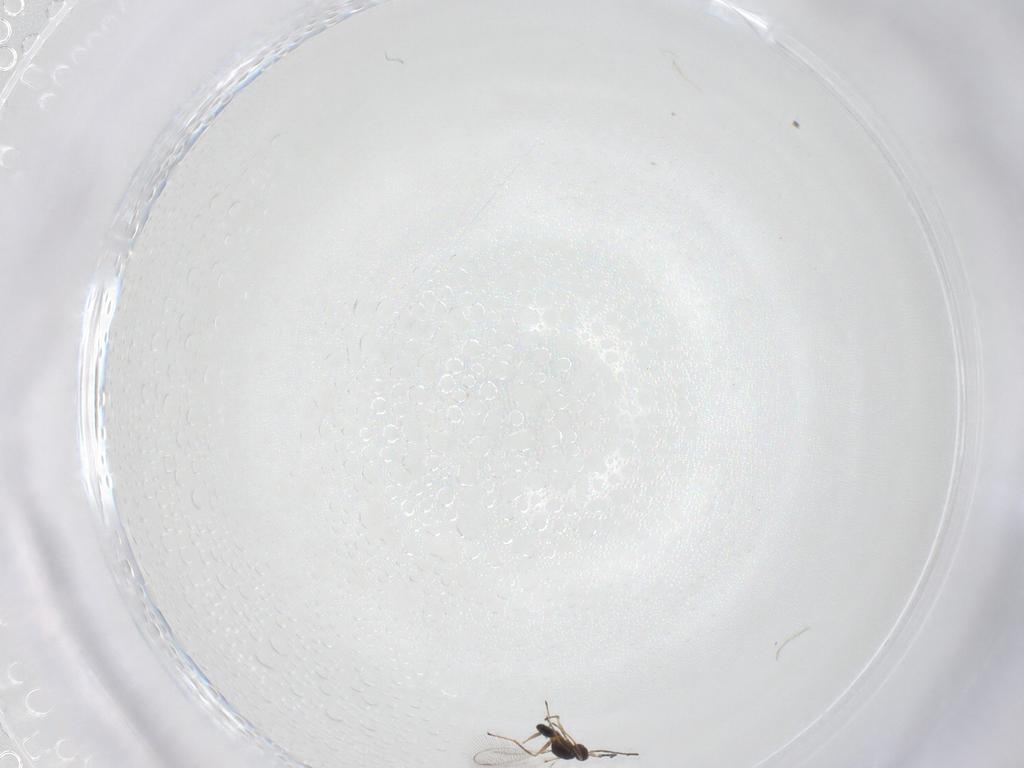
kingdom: Animalia
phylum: Arthropoda
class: Insecta
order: Hymenoptera
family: Mymaridae
